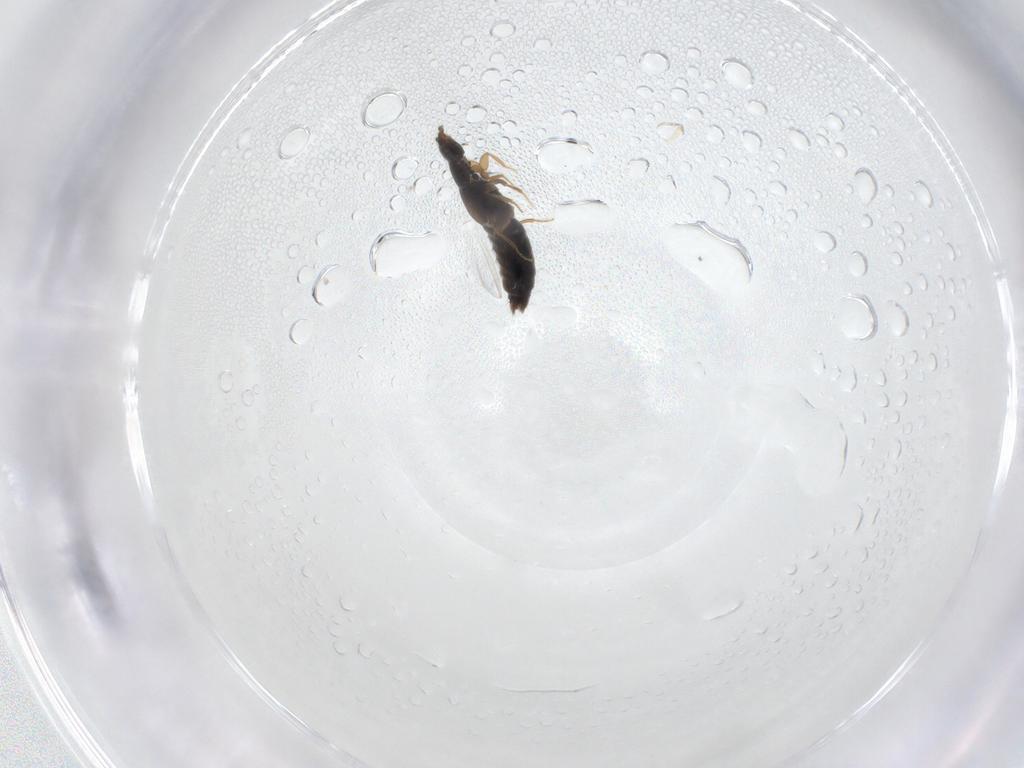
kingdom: Animalia
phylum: Arthropoda
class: Insecta
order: Coleoptera
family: Staphylinidae
